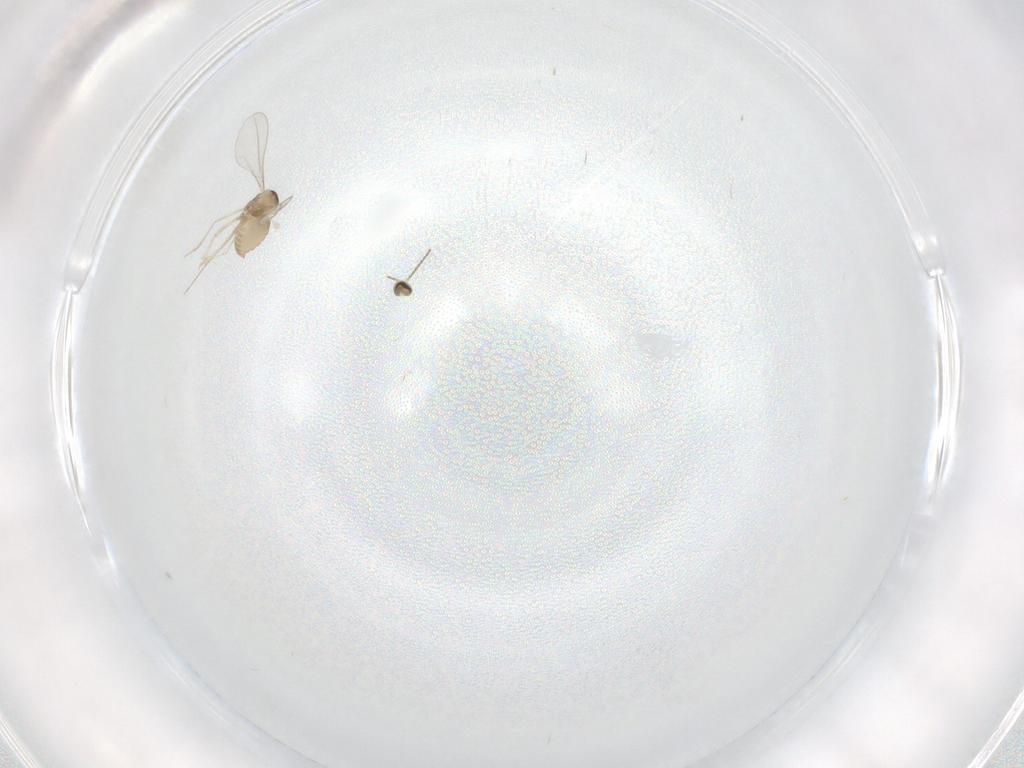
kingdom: Animalia
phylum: Arthropoda
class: Insecta
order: Diptera
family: Cecidomyiidae
